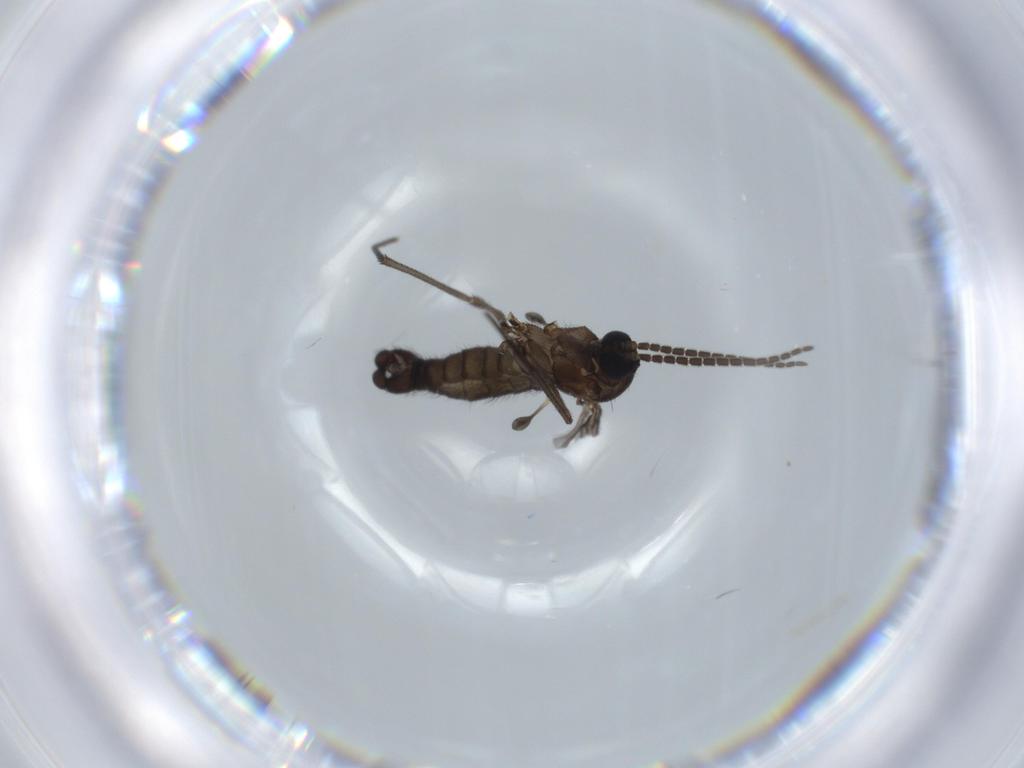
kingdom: Animalia
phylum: Arthropoda
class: Insecta
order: Diptera
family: Sciaridae
